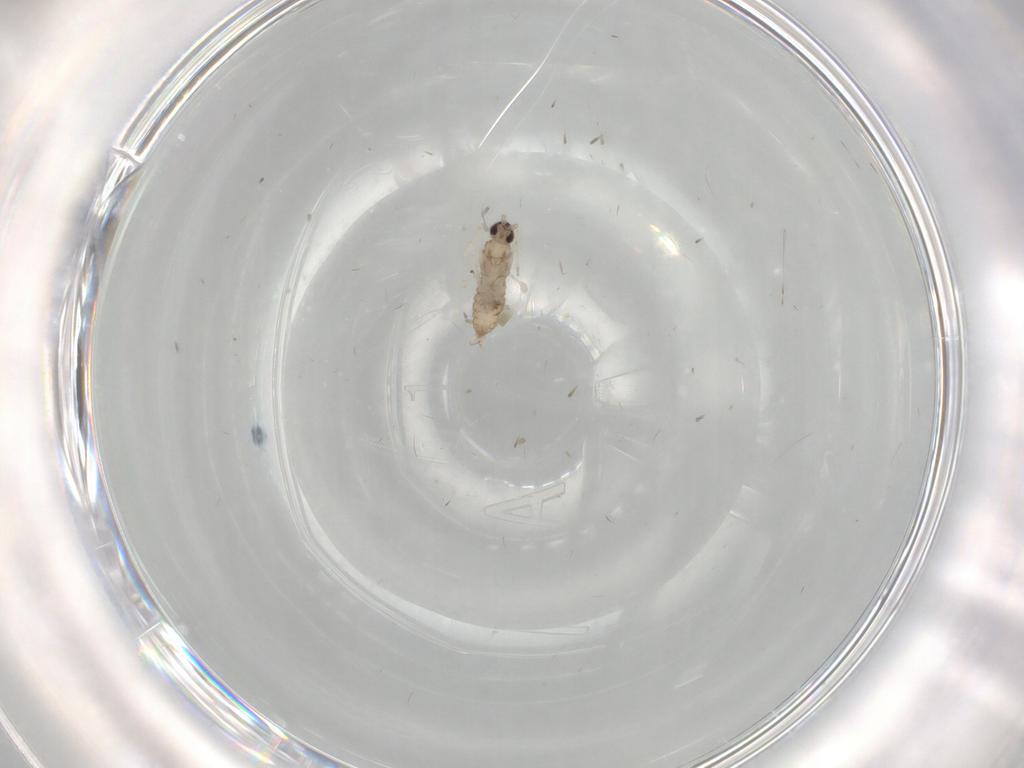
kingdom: Animalia
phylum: Arthropoda
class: Insecta
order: Diptera
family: Cecidomyiidae
